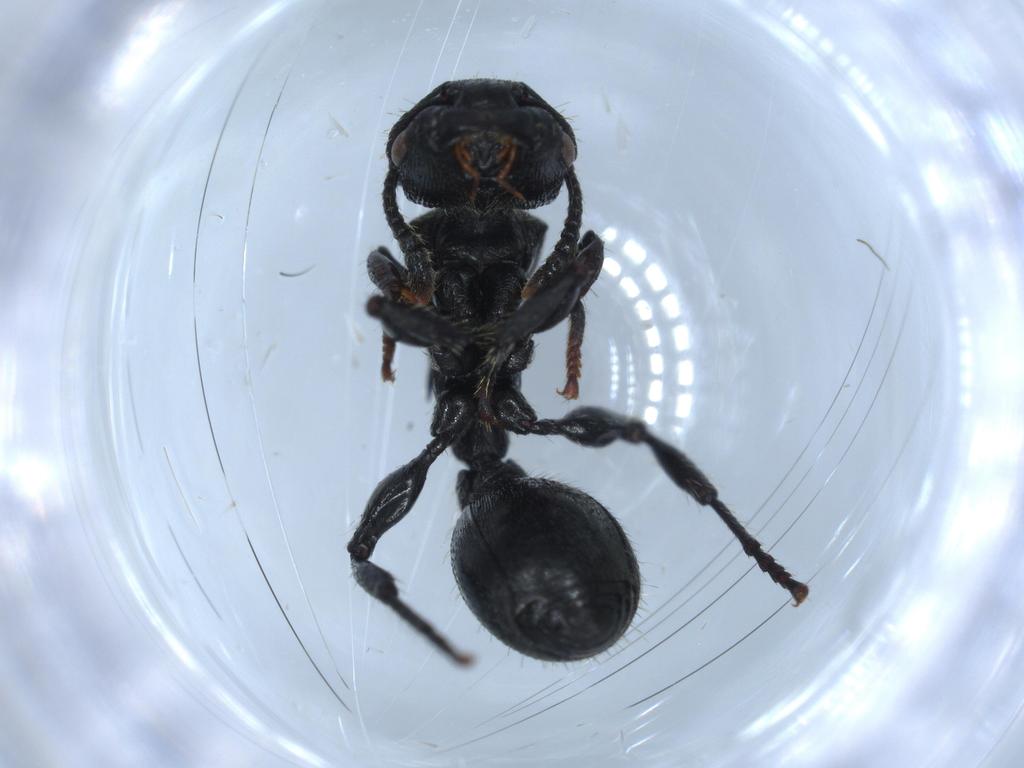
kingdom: Animalia
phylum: Arthropoda
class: Insecta
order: Hymenoptera
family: Formicidae
